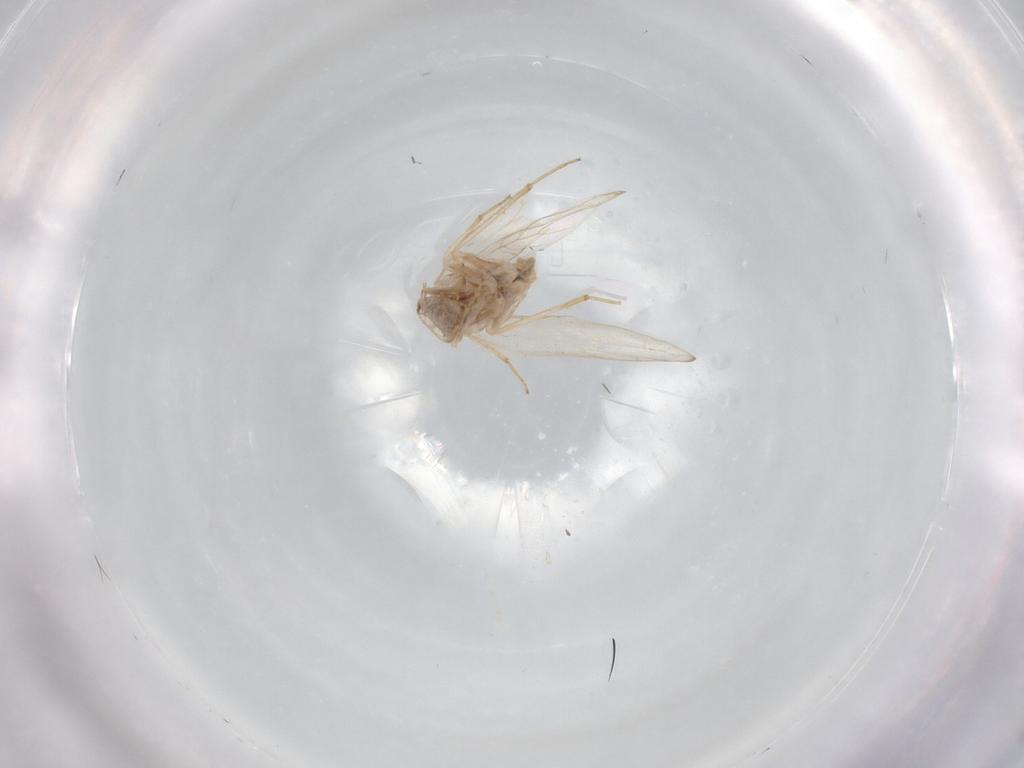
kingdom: Animalia
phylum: Arthropoda
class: Insecta
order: Psocodea
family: Lepidopsocidae
